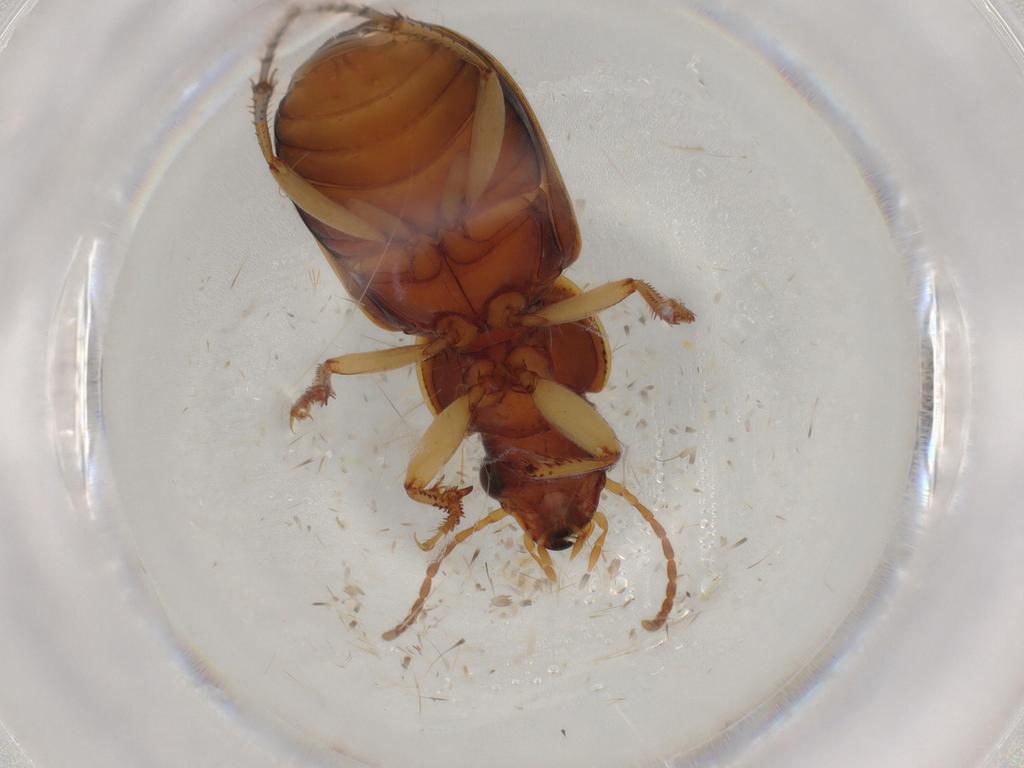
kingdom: Animalia
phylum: Arthropoda
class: Insecta
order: Coleoptera
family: Carabidae
